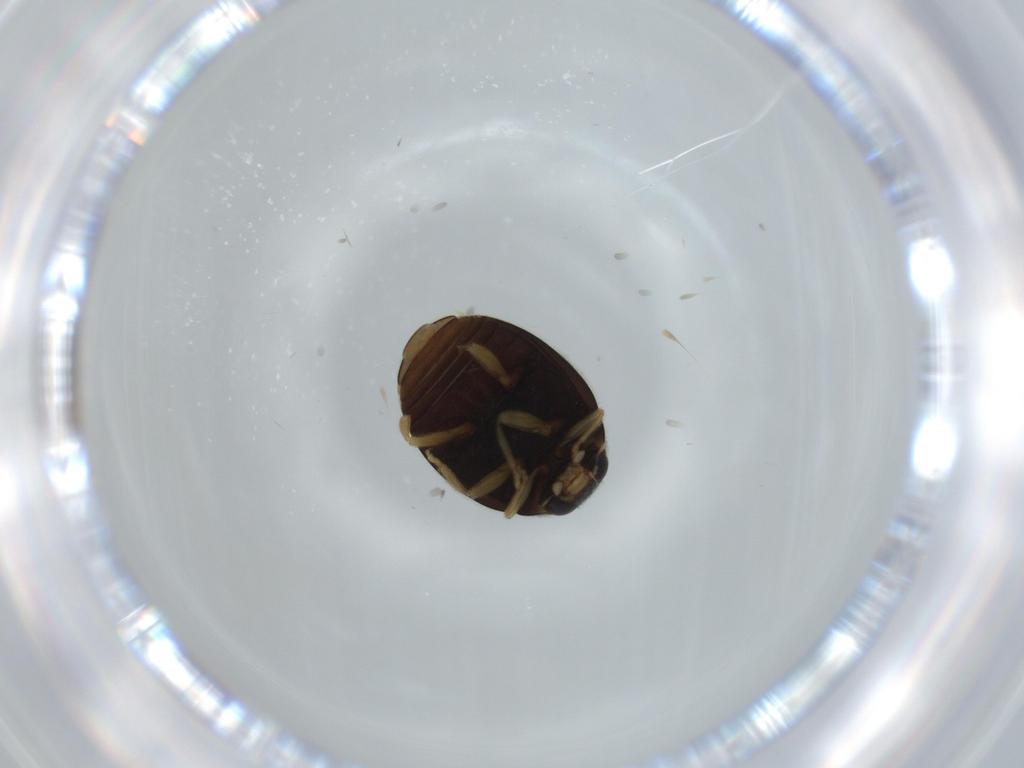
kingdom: Animalia
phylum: Arthropoda
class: Insecta
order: Coleoptera
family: Coccinellidae
